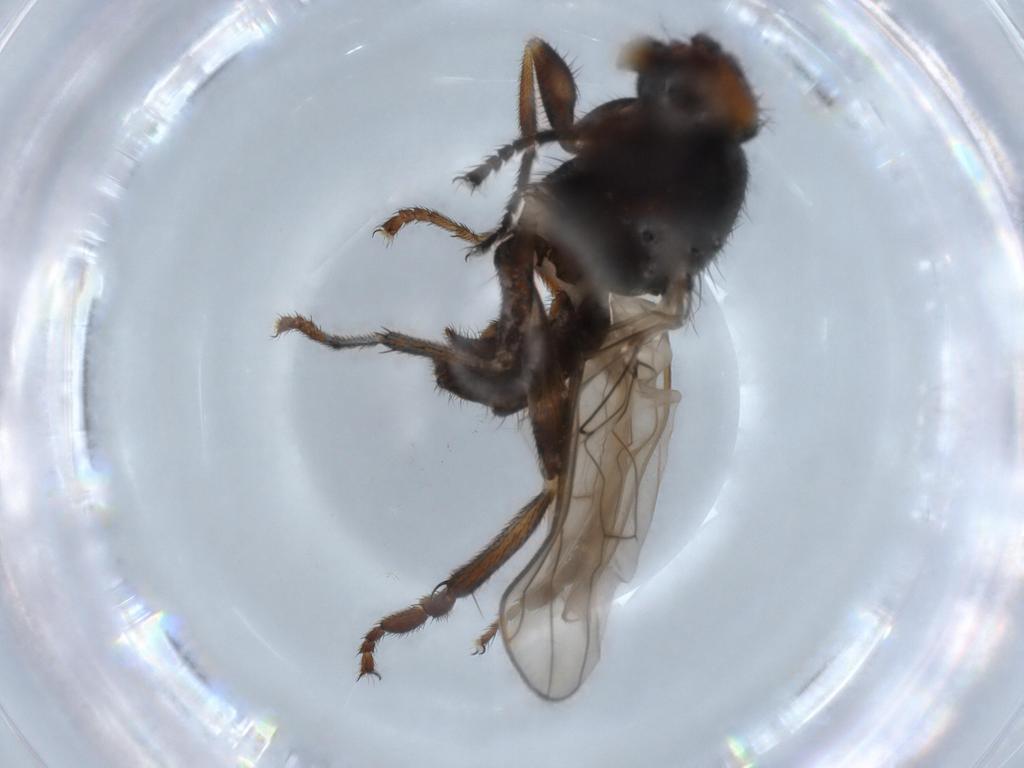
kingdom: Animalia
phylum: Arthropoda
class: Insecta
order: Diptera
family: Sphaeroceridae
